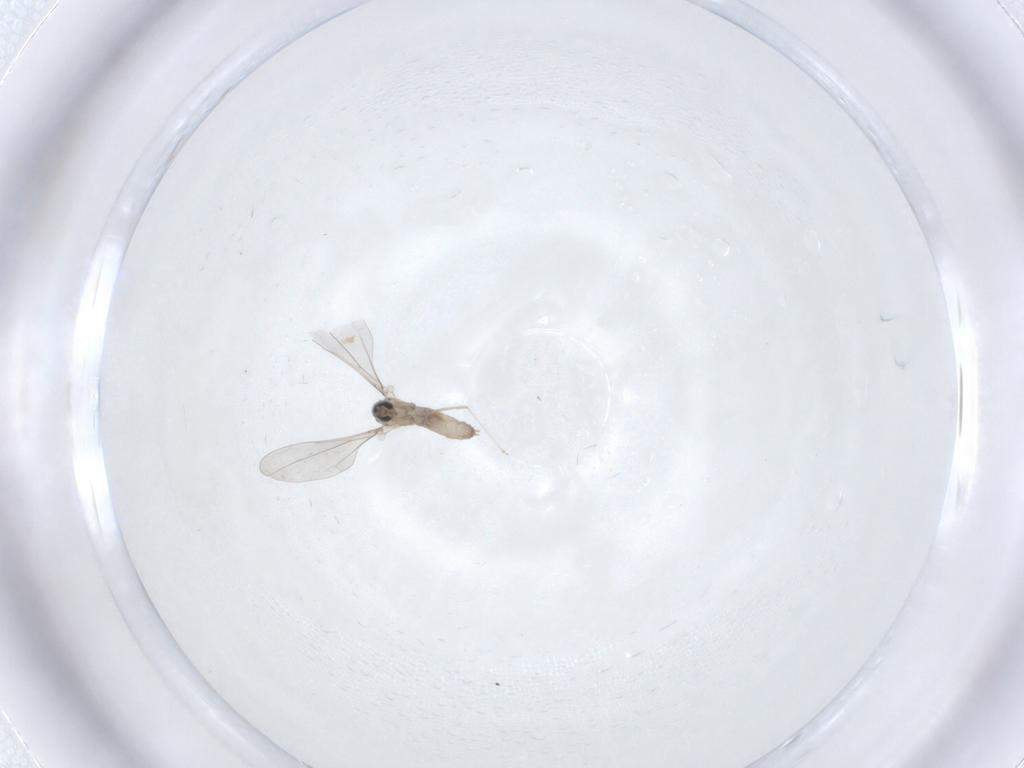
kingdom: Animalia
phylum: Arthropoda
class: Insecta
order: Diptera
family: Cecidomyiidae
